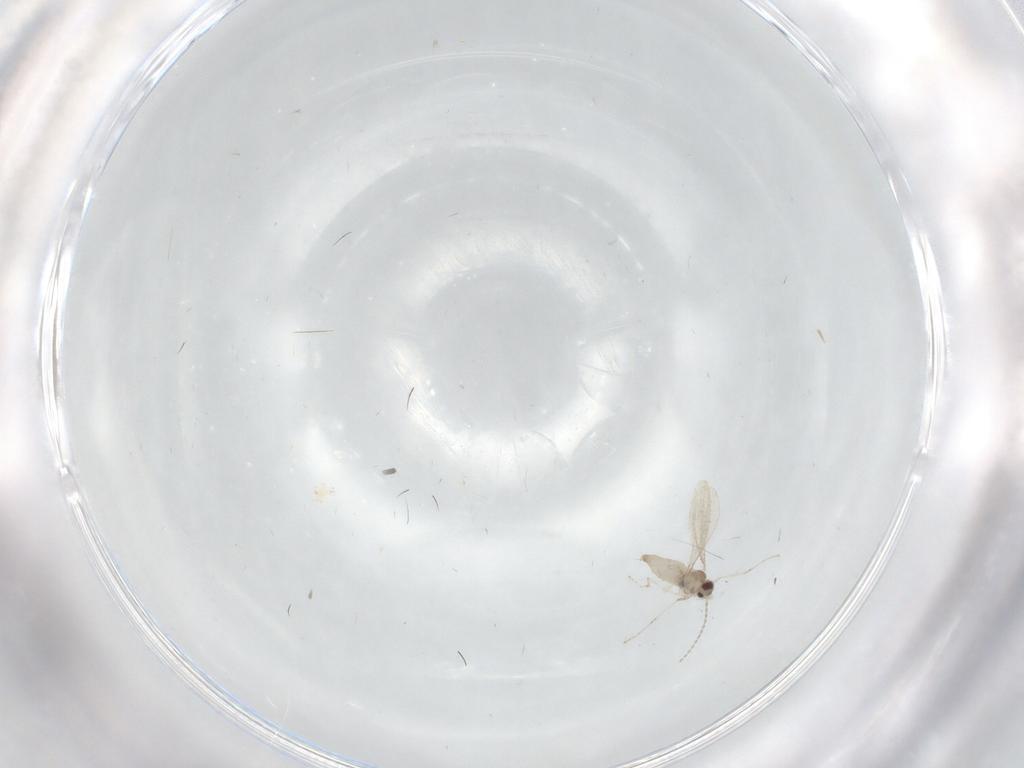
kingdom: Animalia
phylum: Arthropoda
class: Insecta
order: Diptera
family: Cecidomyiidae
